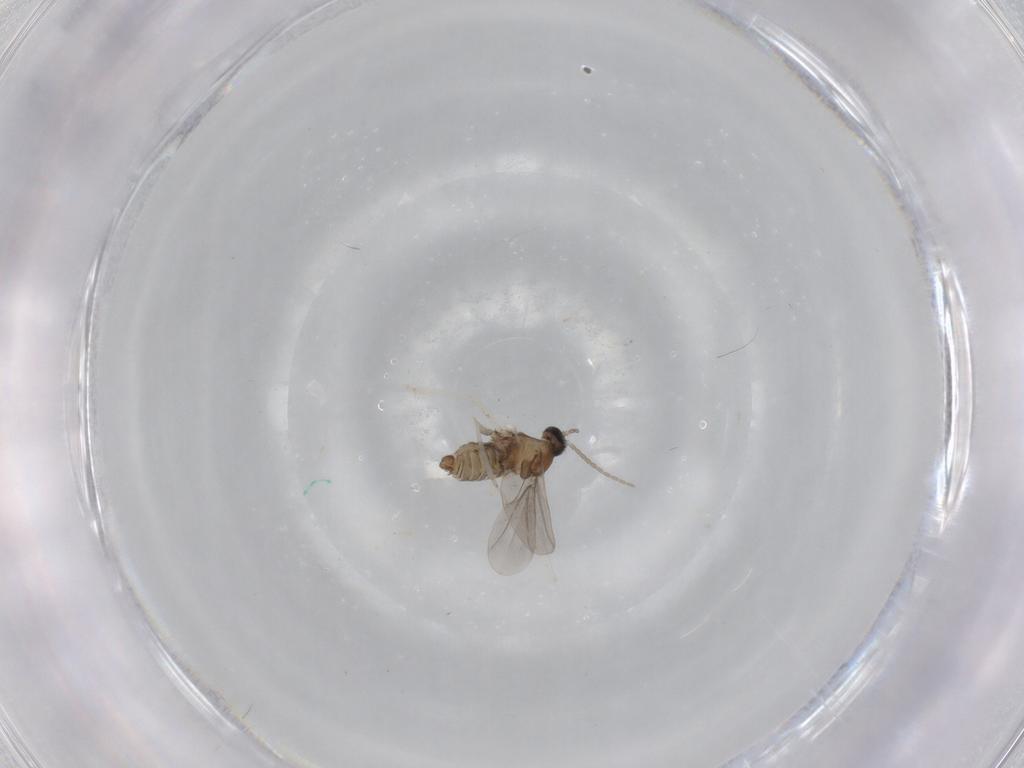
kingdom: Animalia
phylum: Arthropoda
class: Insecta
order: Diptera
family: Cecidomyiidae
